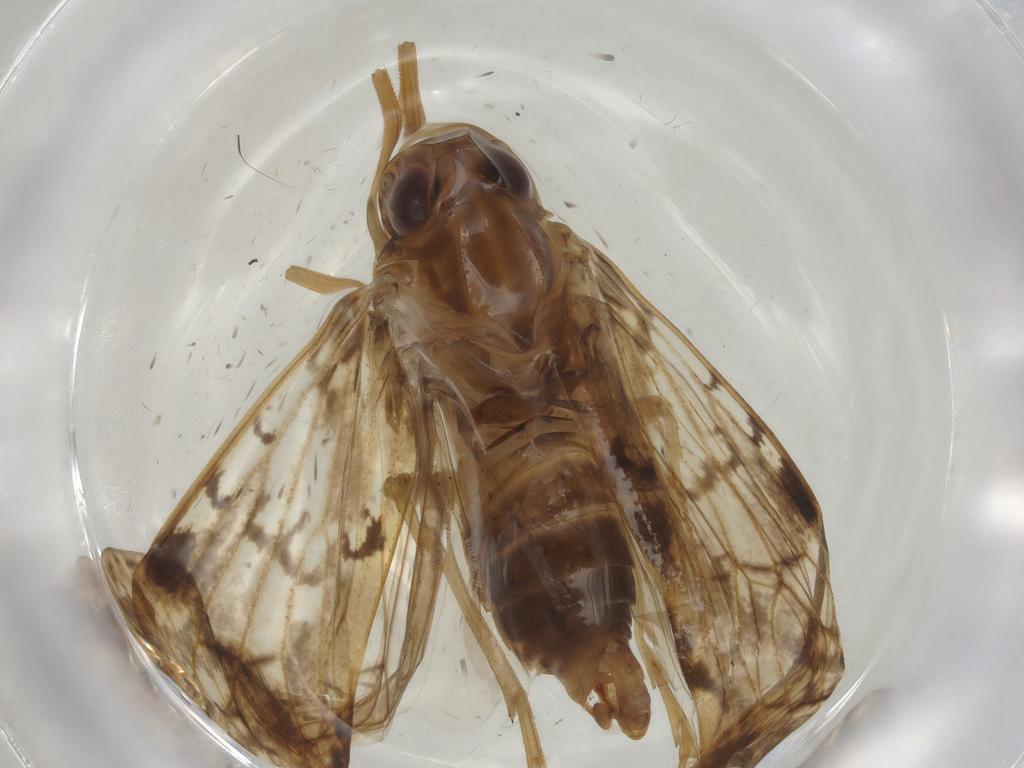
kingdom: Animalia
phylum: Arthropoda
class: Insecta
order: Hemiptera
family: Cixiidae
